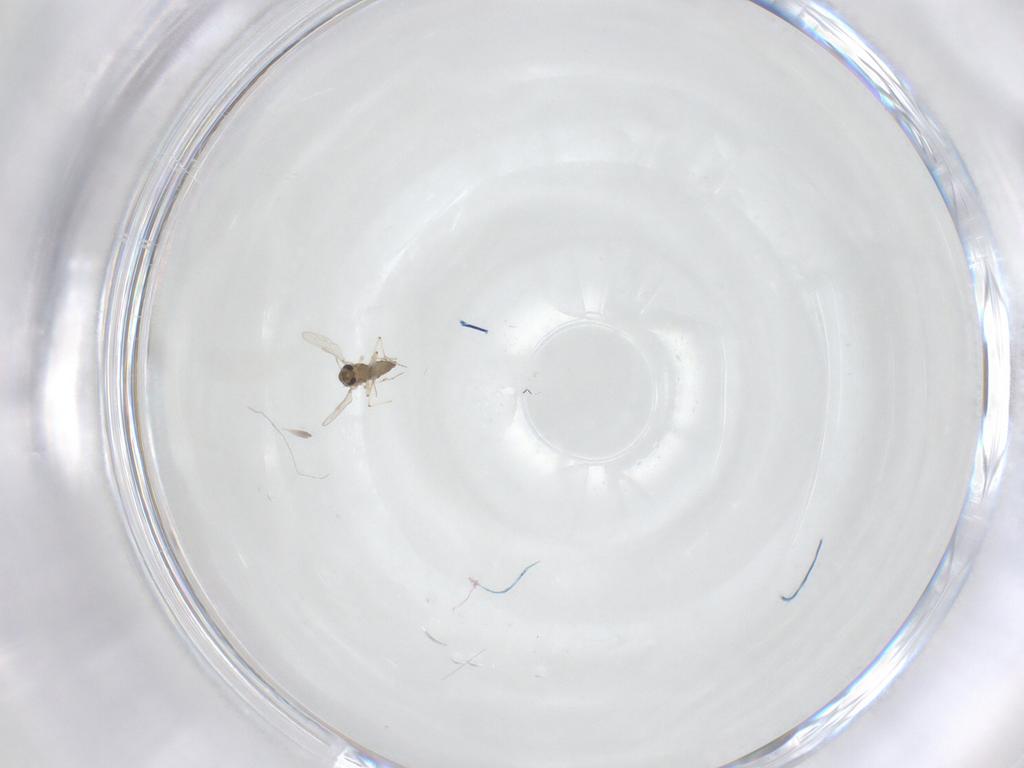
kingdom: Animalia
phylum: Arthropoda
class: Insecta
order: Diptera
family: Chironomidae
